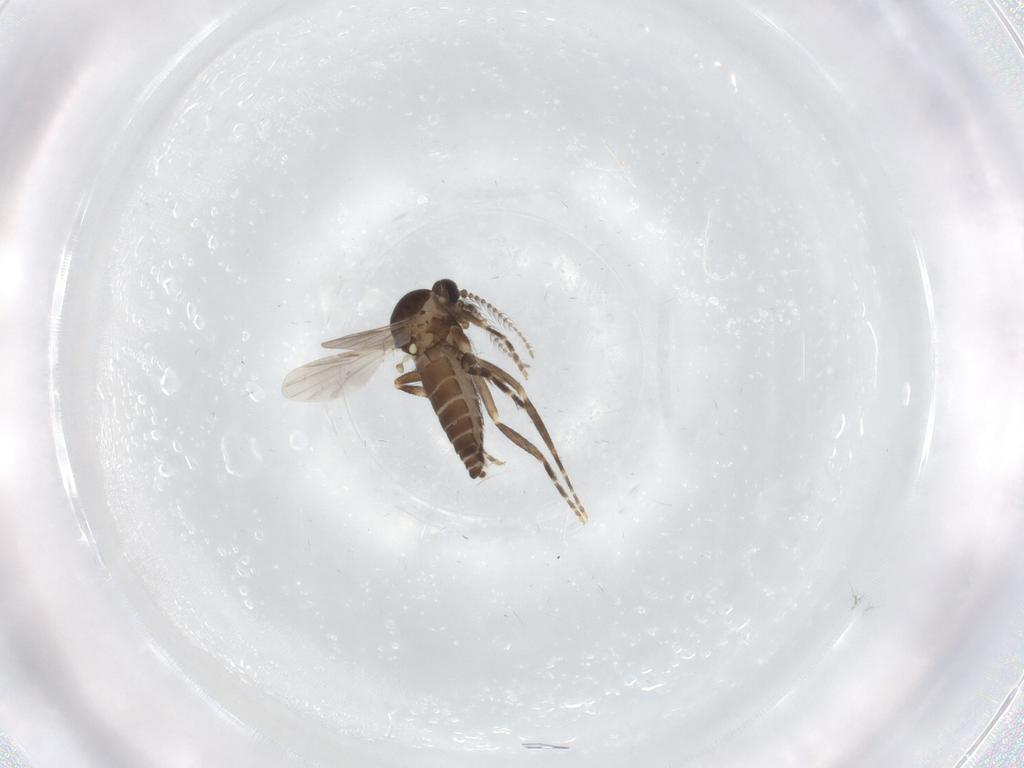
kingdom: Animalia
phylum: Arthropoda
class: Insecta
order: Diptera
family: Ceratopogonidae
